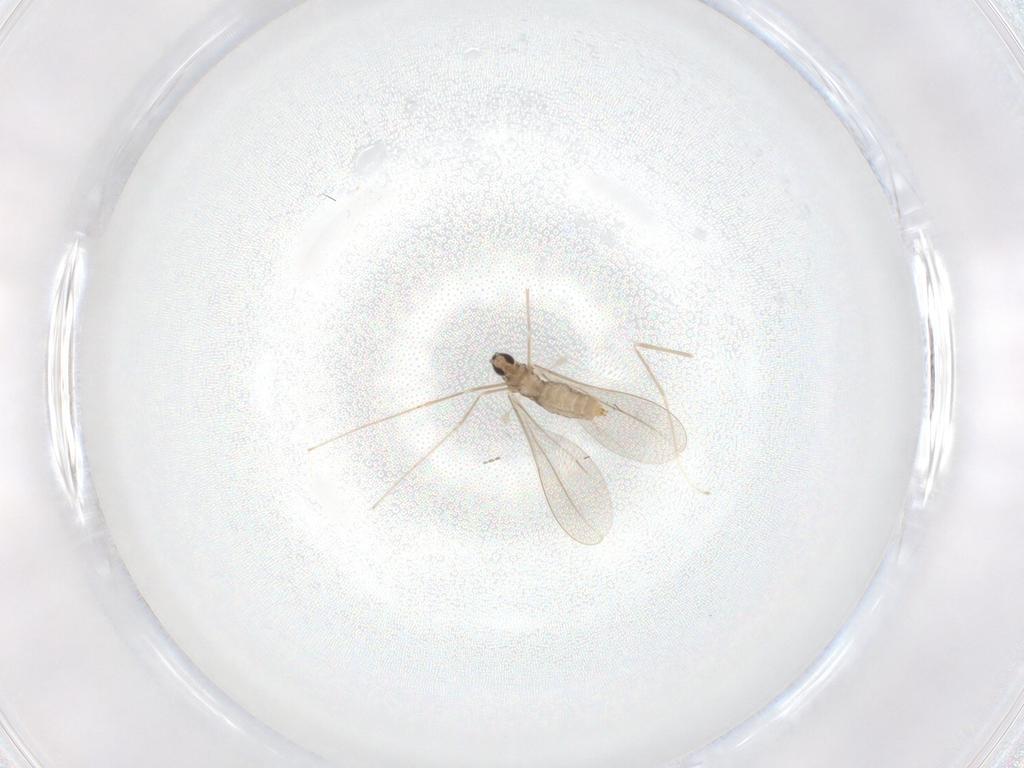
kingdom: Animalia
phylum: Arthropoda
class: Insecta
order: Diptera
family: Cecidomyiidae
